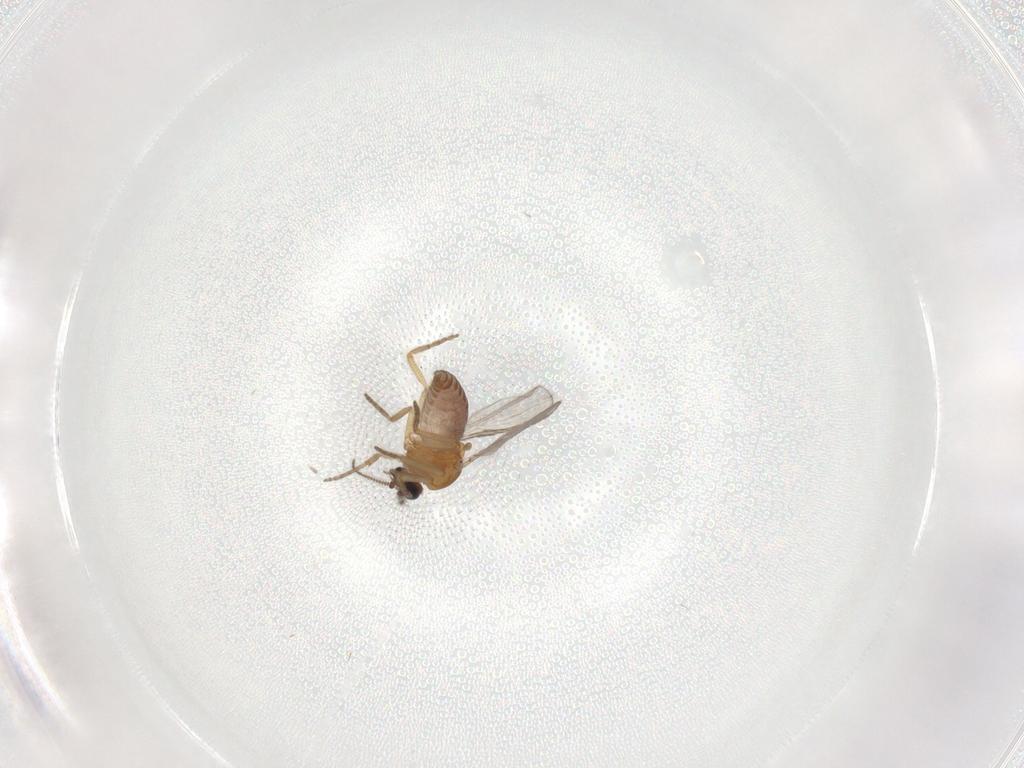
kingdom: Animalia
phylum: Arthropoda
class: Insecta
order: Diptera
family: Ceratopogonidae
